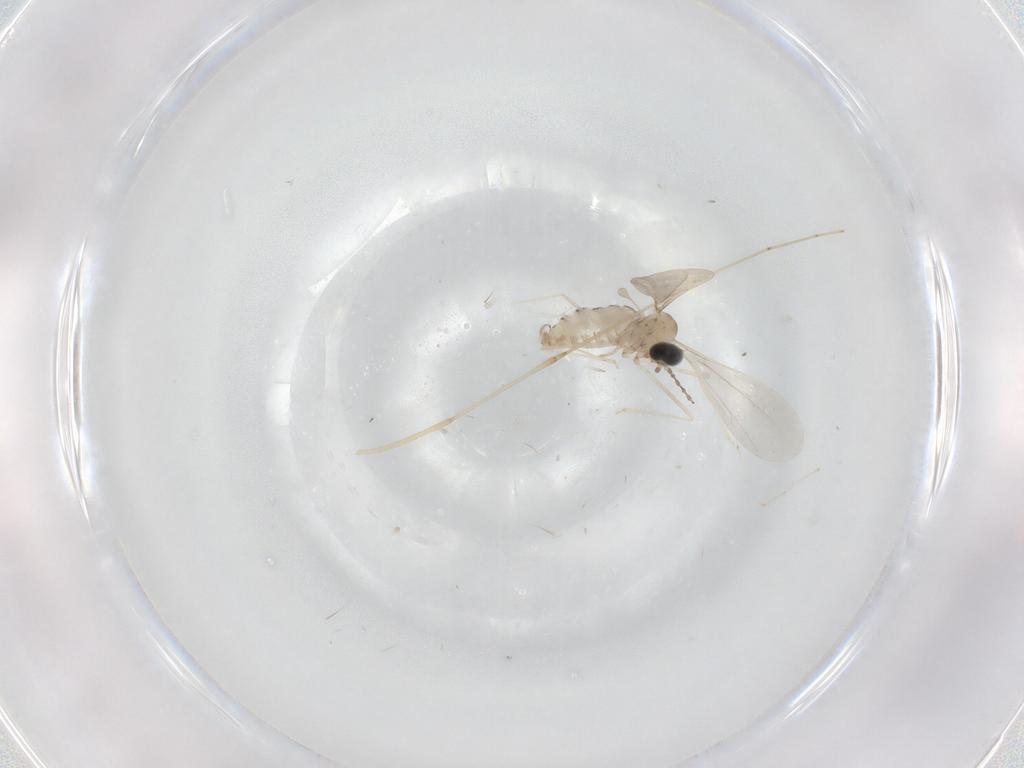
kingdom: Animalia
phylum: Arthropoda
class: Insecta
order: Diptera
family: Cecidomyiidae
